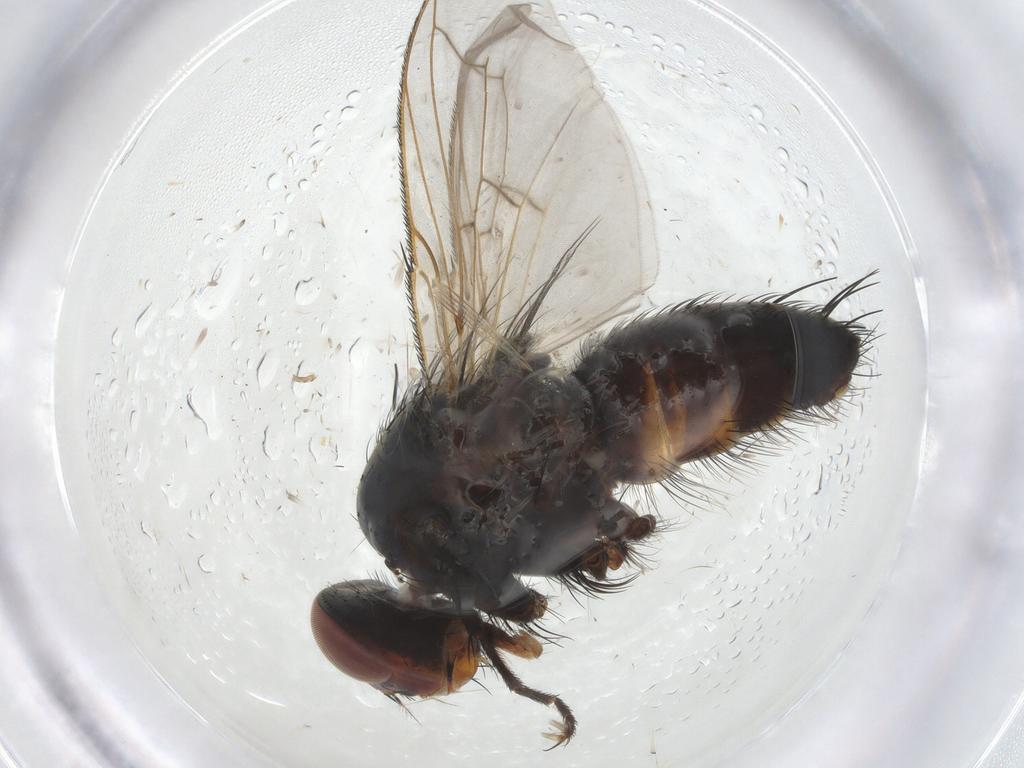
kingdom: Animalia
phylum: Arthropoda
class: Insecta
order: Diptera
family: Tachinidae
